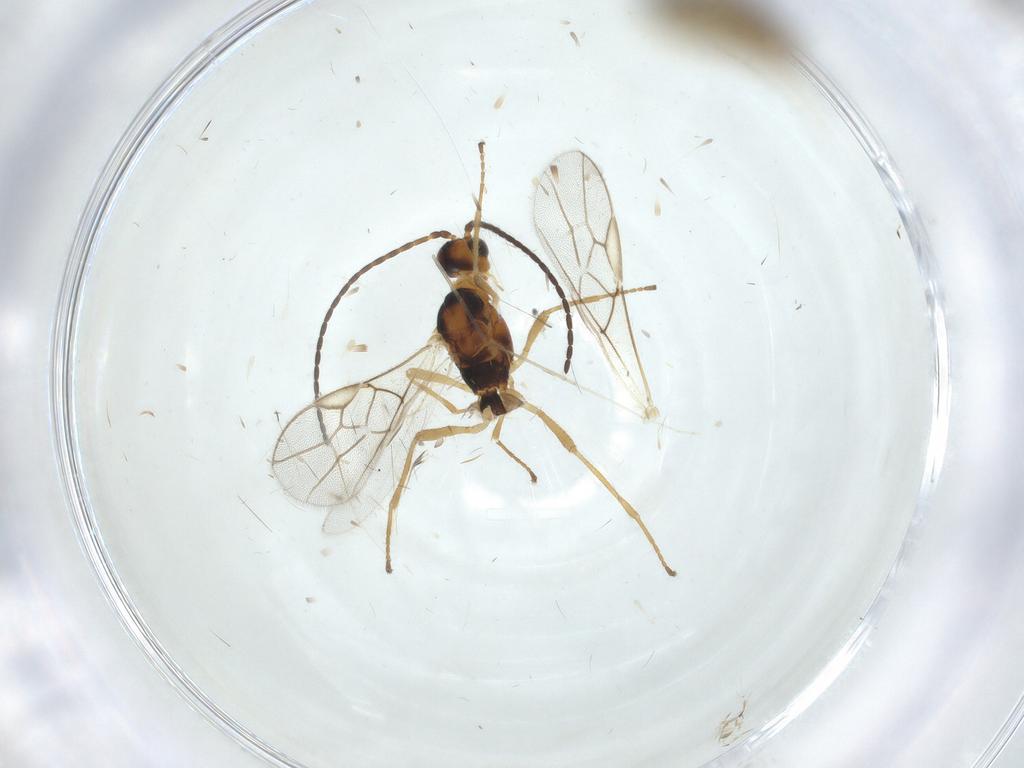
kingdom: Animalia
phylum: Arthropoda
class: Insecta
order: Hymenoptera
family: Braconidae
